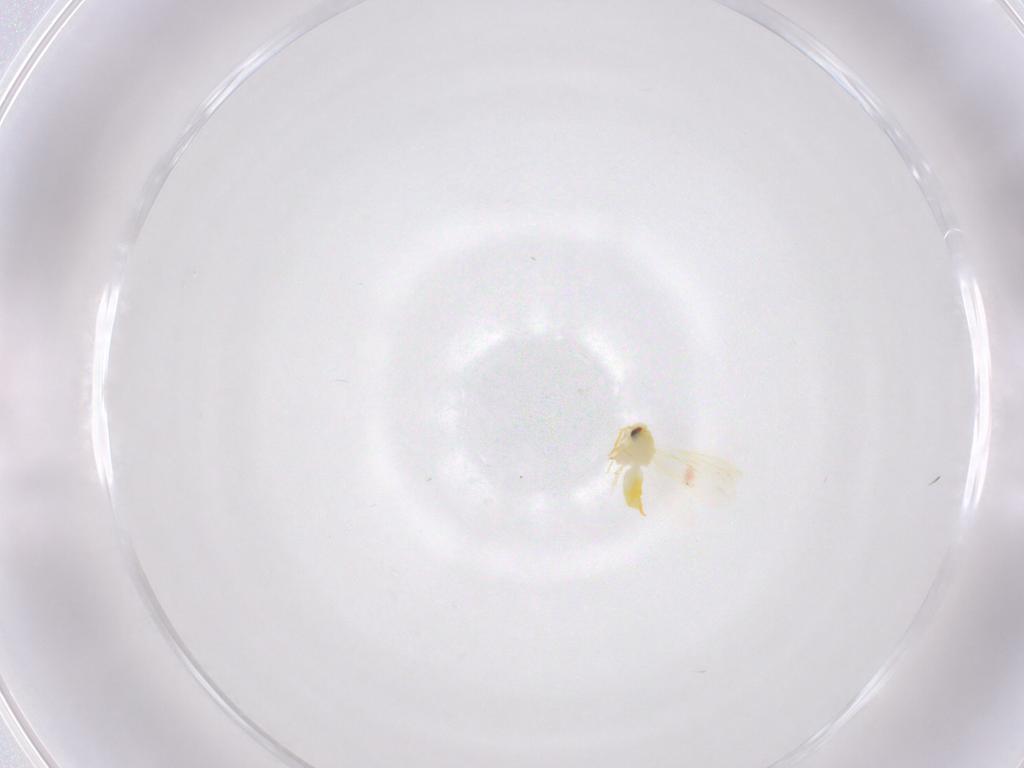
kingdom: Animalia
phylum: Arthropoda
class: Insecta
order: Hemiptera
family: Aleyrodidae
